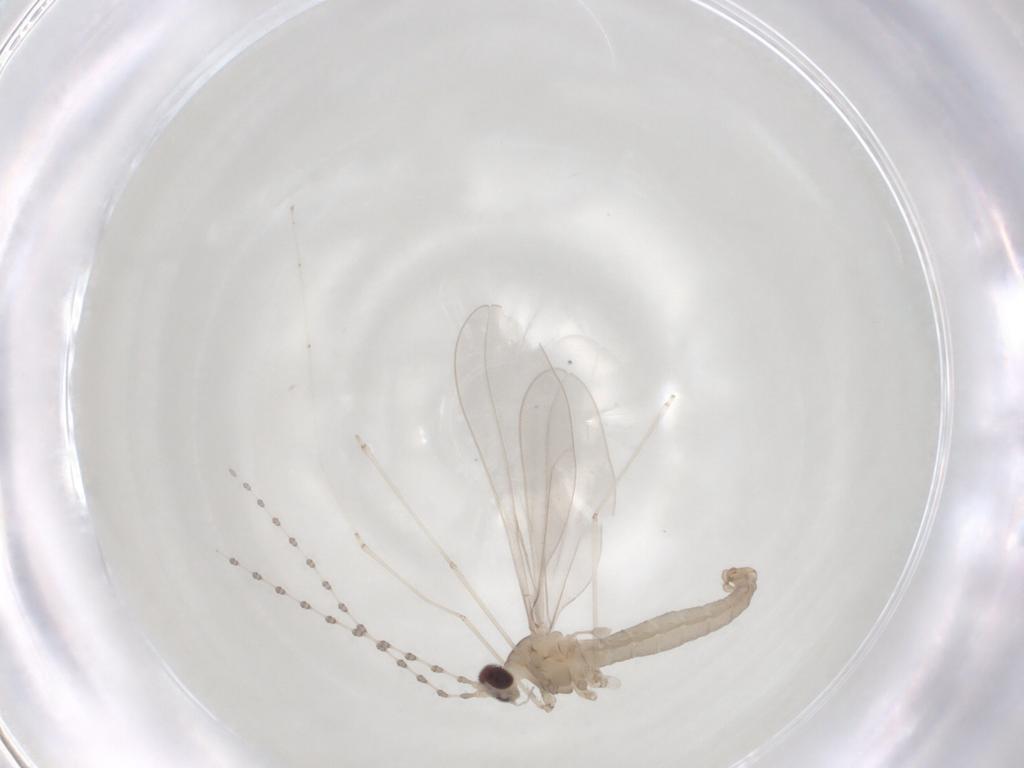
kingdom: Animalia
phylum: Arthropoda
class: Insecta
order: Diptera
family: Cecidomyiidae
